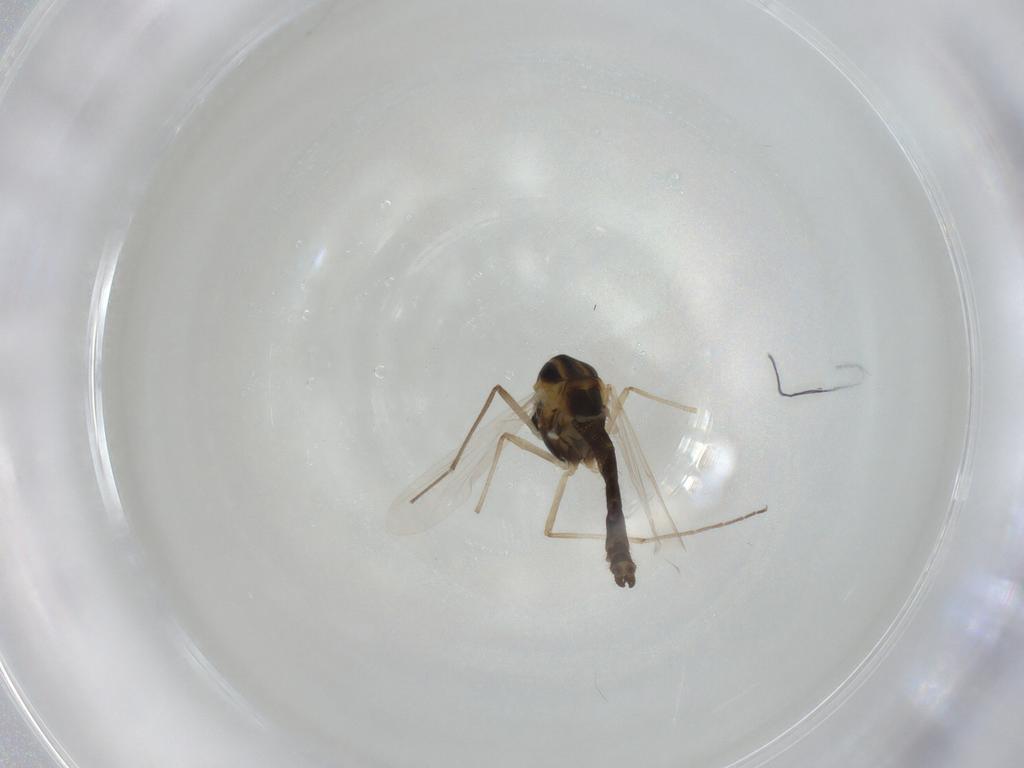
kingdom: Animalia
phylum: Arthropoda
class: Insecta
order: Diptera
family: Chironomidae
